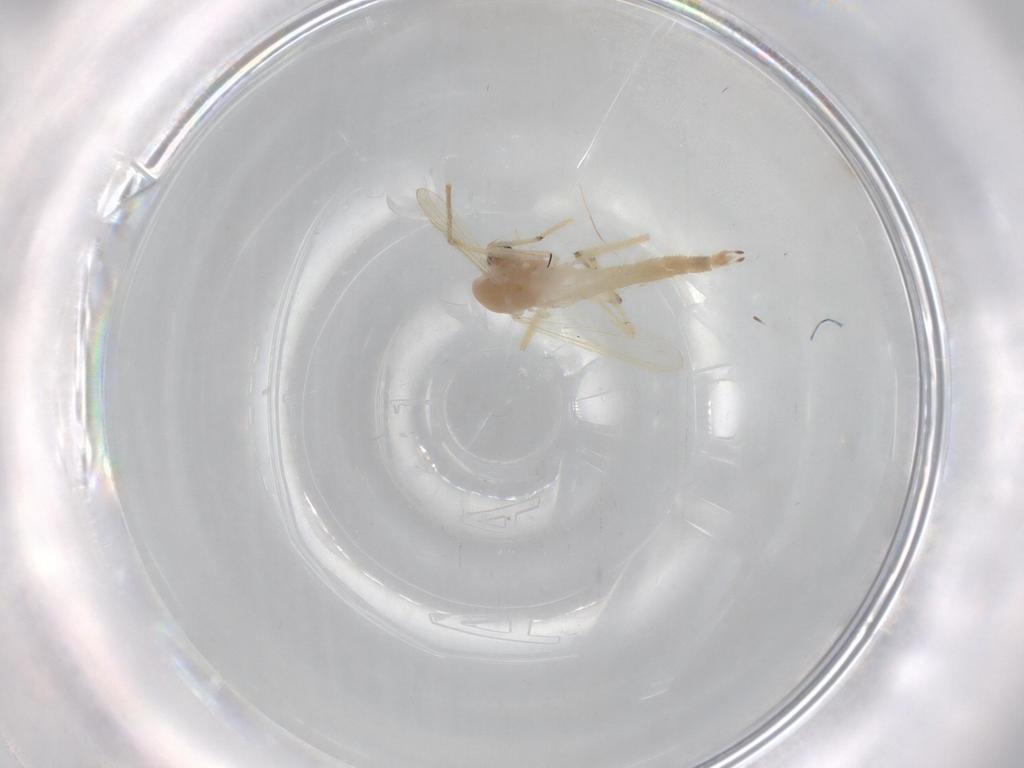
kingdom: Animalia
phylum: Arthropoda
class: Insecta
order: Diptera
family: Chironomidae
